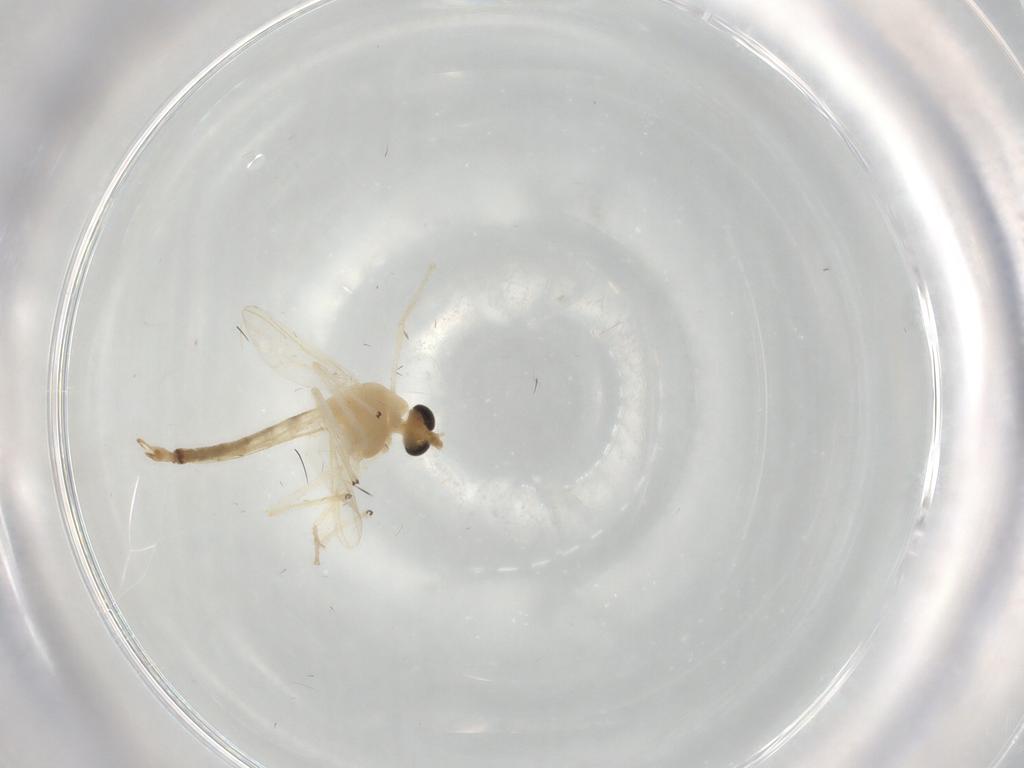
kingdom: Animalia
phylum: Arthropoda
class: Insecta
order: Diptera
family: Chironomidae
